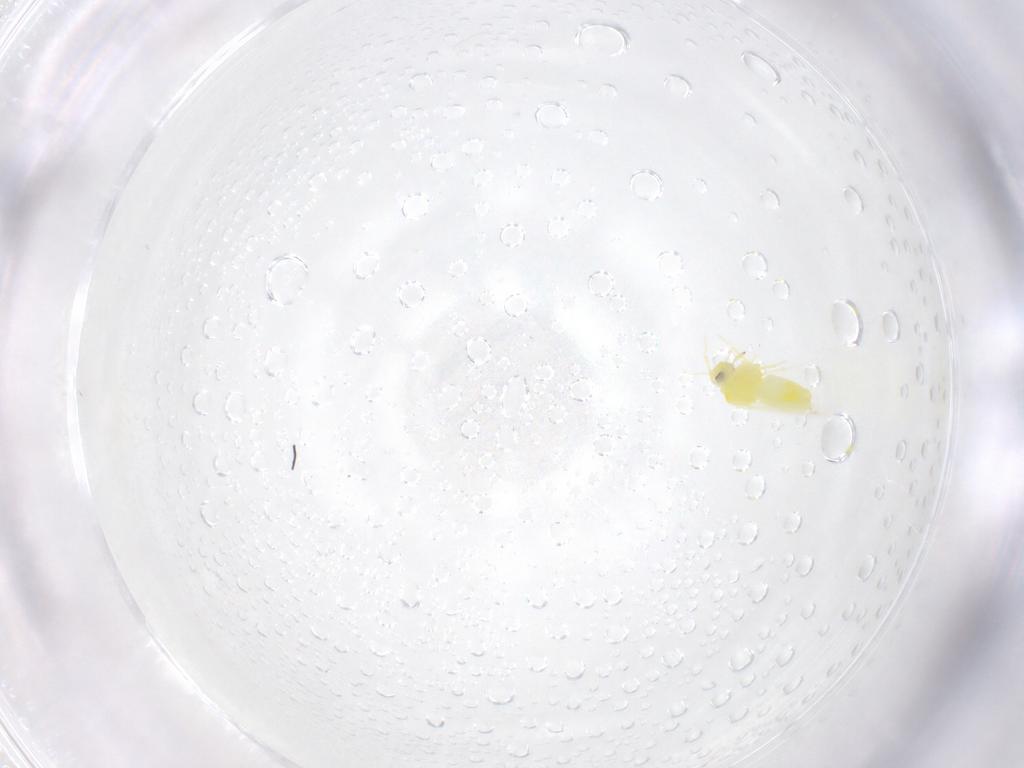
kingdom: Animalia
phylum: Arthropoda
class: Insecta
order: Hemiptera
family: Aleyrodidae
